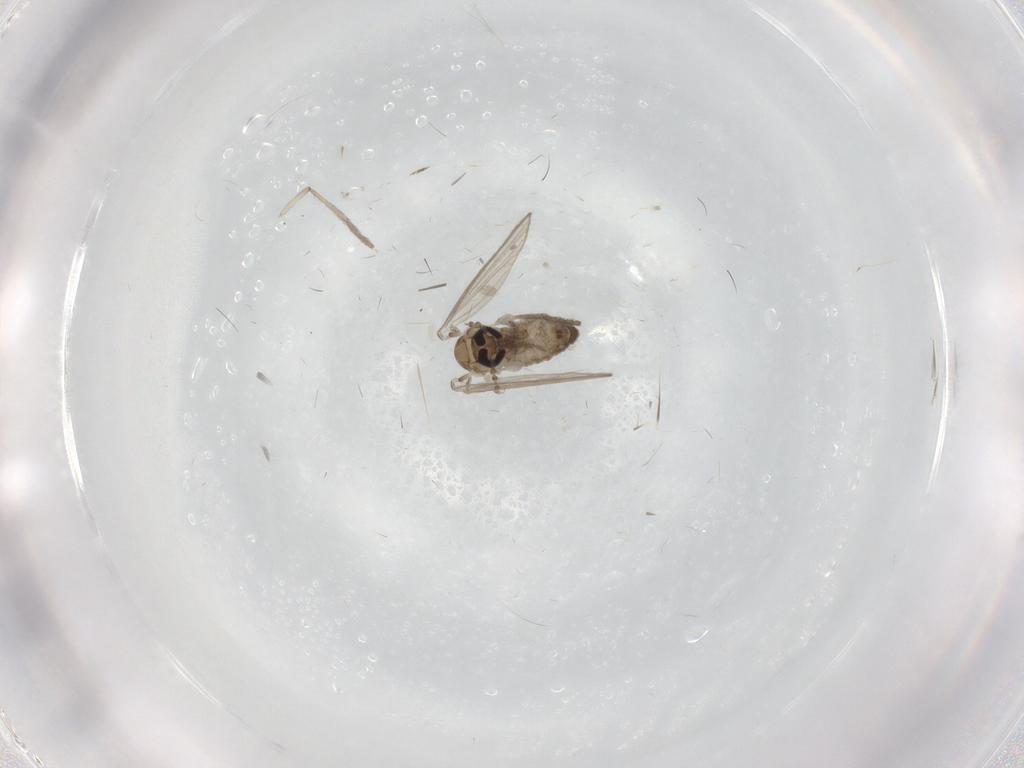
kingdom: Animalia
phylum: Arthropoda
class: Insecta
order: Diptera
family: Psychodidae
